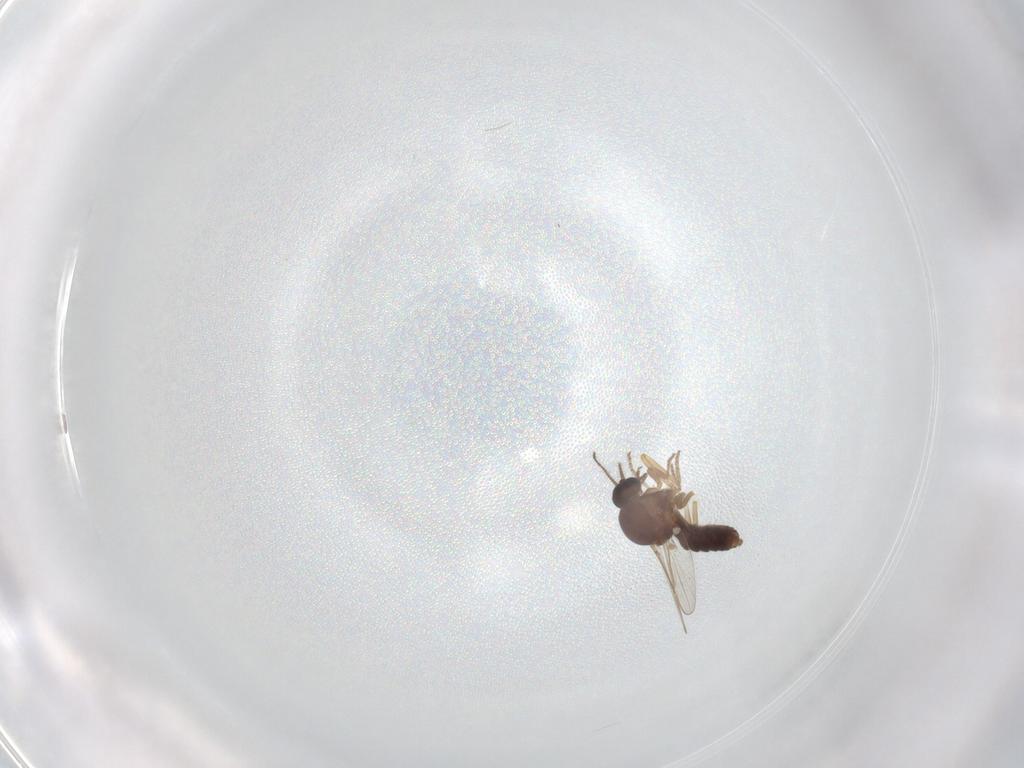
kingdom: Animalia
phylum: Arthropoda
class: Insecta
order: Diptera
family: Ceratopogonidae
